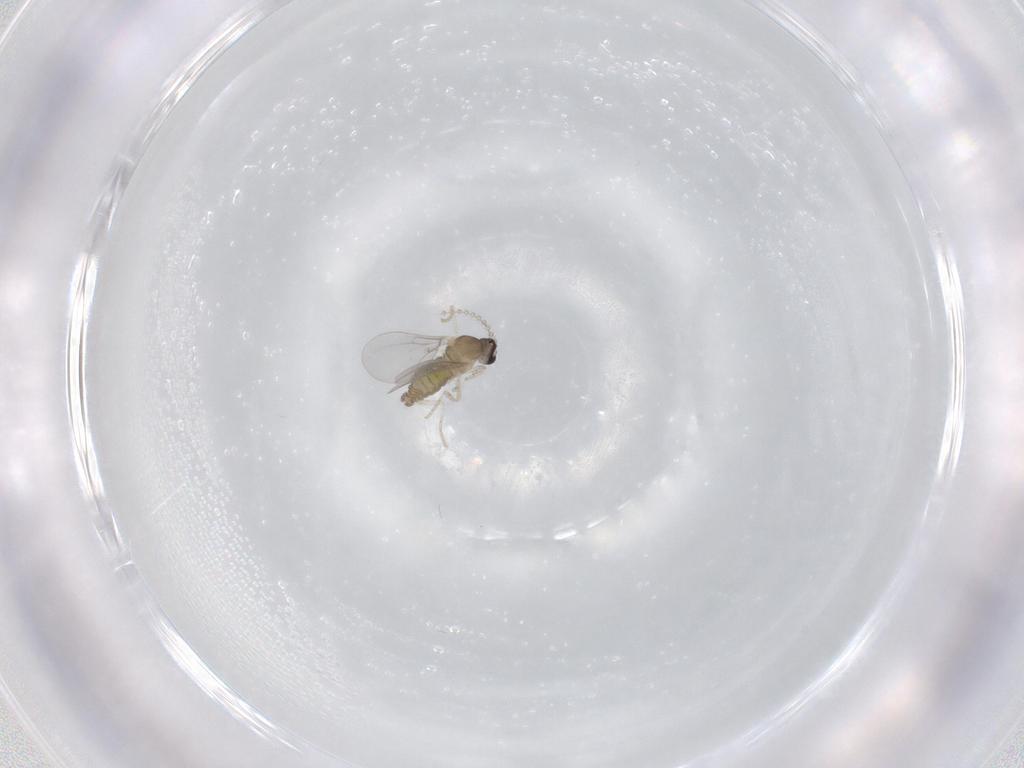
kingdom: Animalia
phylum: Arthropoda
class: Insecta
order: Diptera
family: Cecidomyiidae
